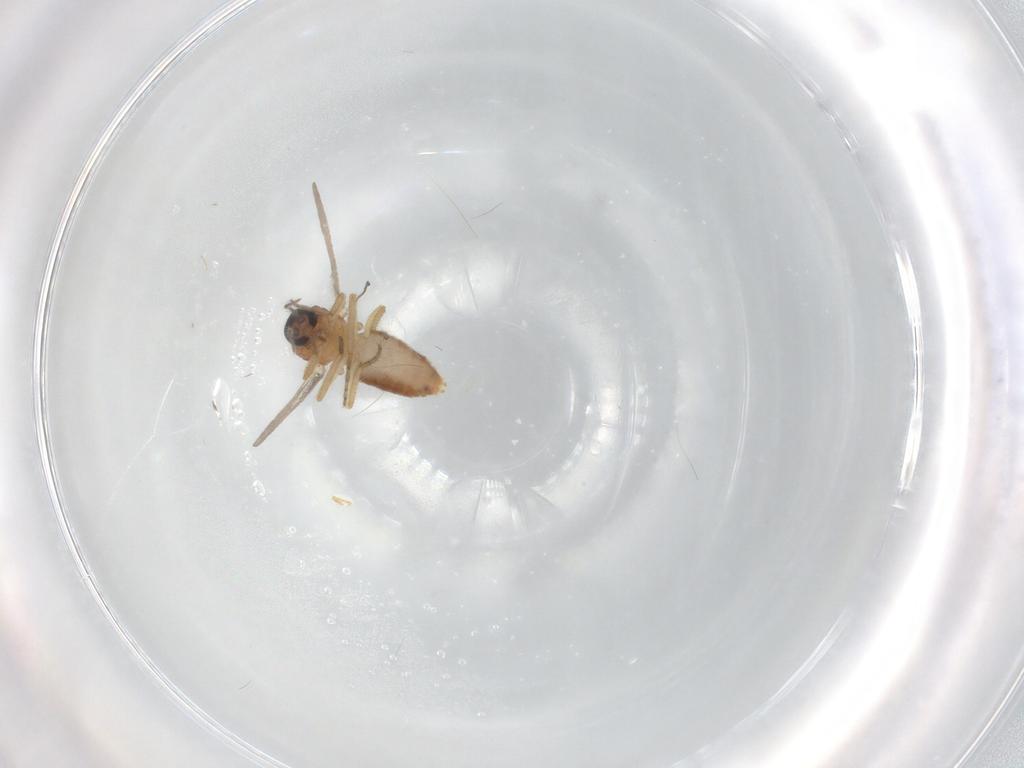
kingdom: Animalia
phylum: Arthropoda
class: Insecta
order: Diptera
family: Ceratopogonidae
